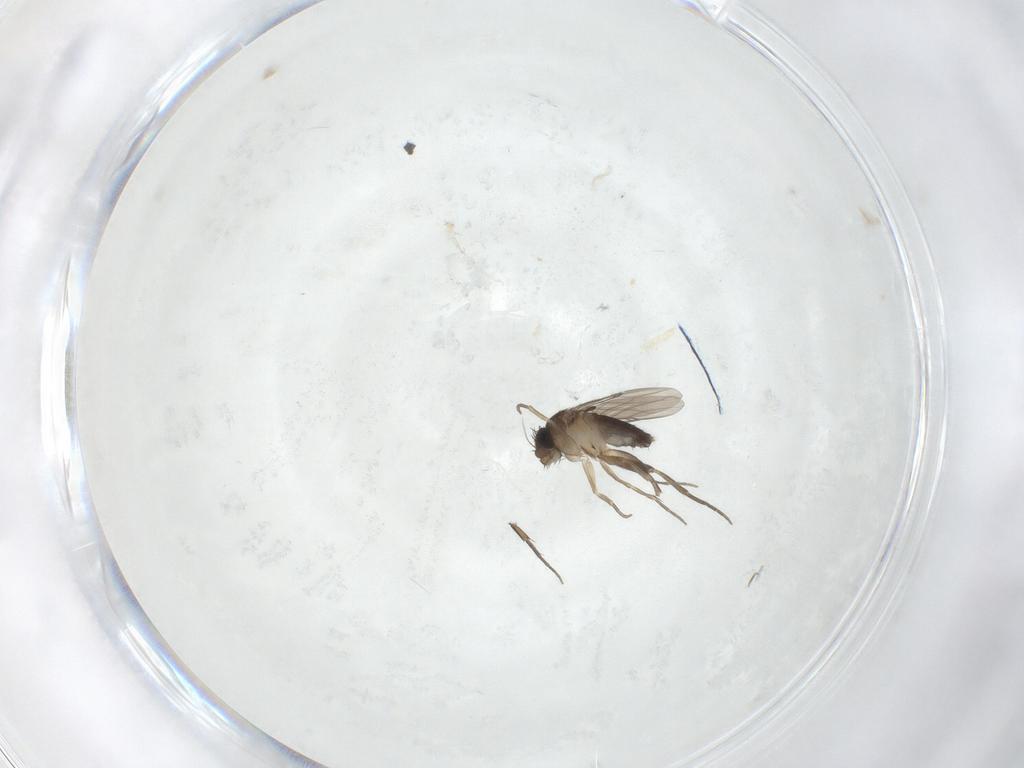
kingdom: Animalia
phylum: Arthropoda
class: Insecta
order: Diptera
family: Phoridae
